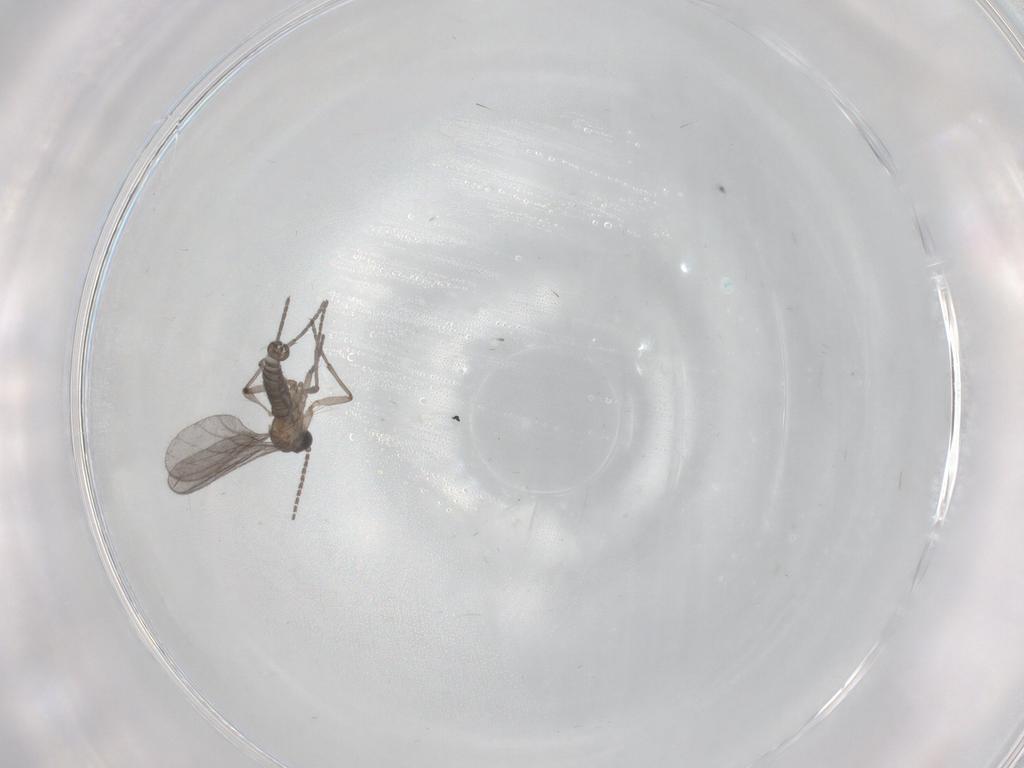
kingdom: Animalia
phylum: Arthropoda
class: Insecta
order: Diptera
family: Sciaridae
